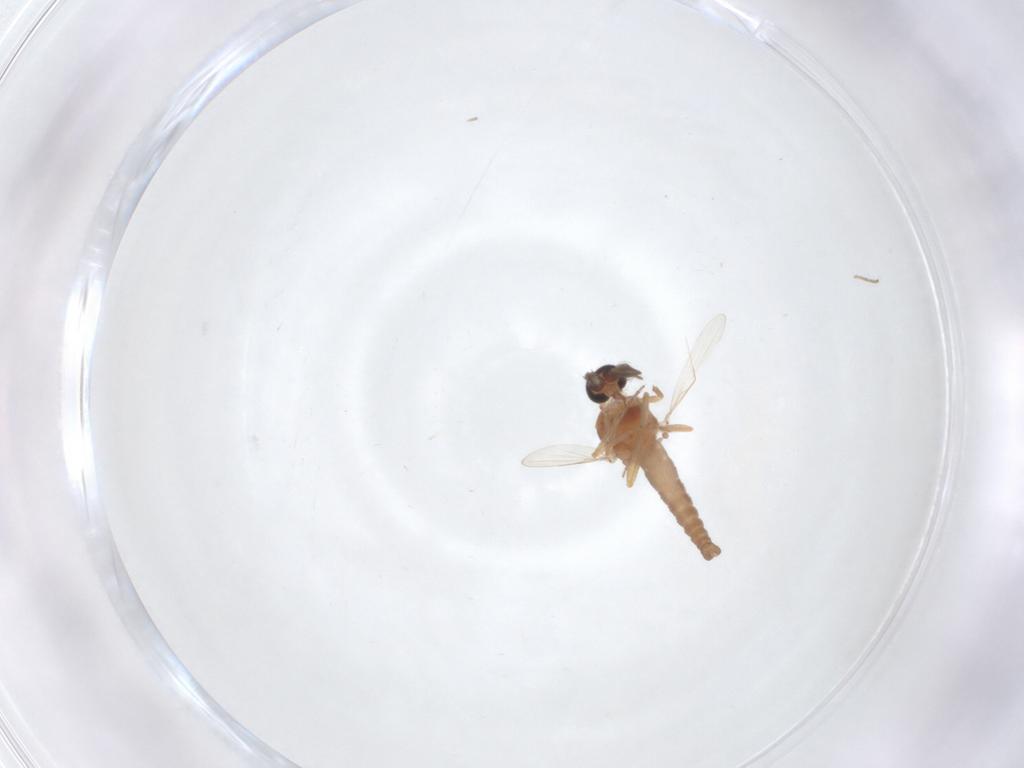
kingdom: Animalia
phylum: Arthropoda
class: Insecta
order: Diptera
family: Ceratopogonidae
